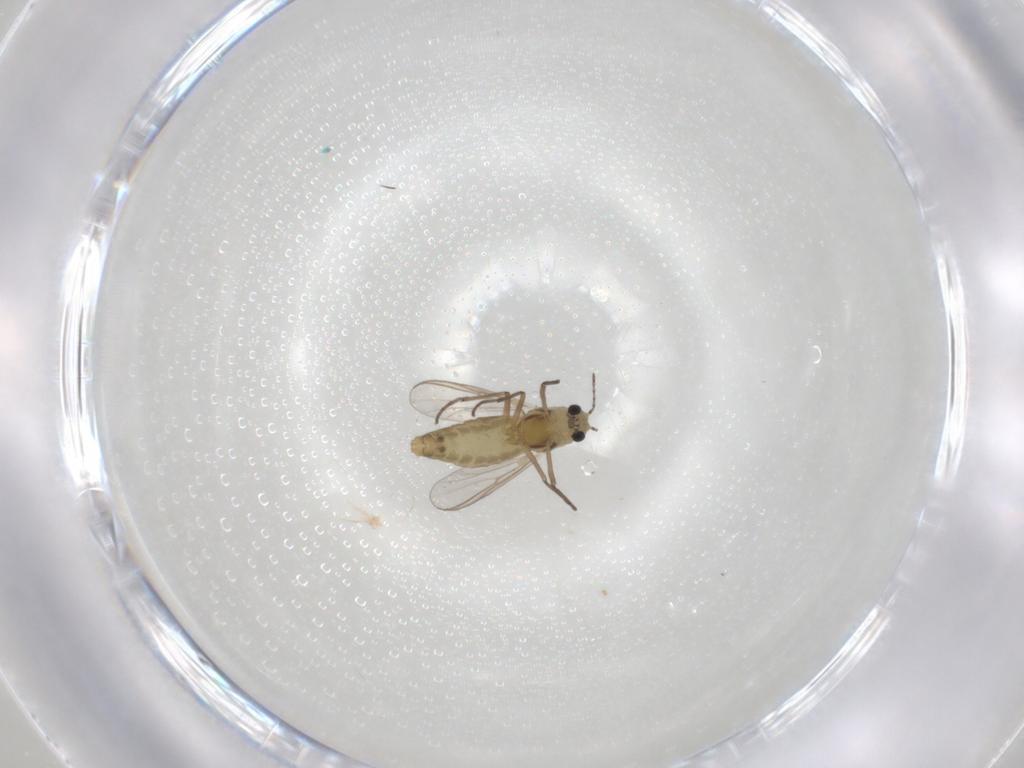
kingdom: Animalia
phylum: Arthropoda
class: Insecta
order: Diptera
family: Chironomidae
